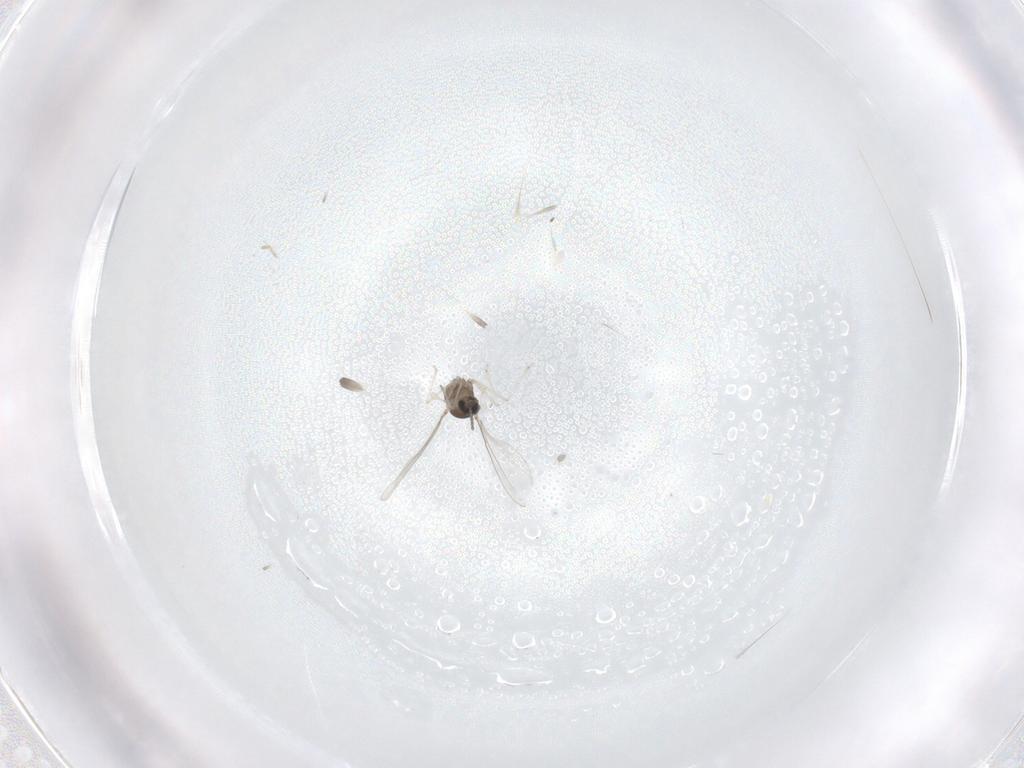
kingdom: Animalia
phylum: Arthropoda
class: Insecta
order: Diptera
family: Cecidomyiidae
